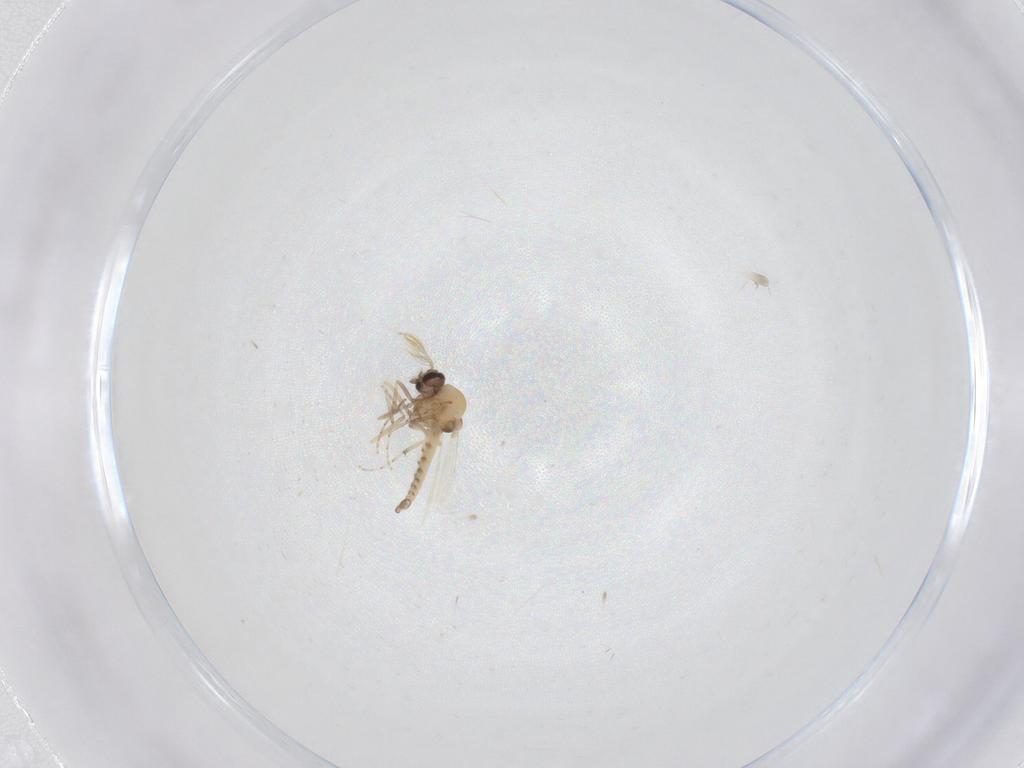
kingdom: Animalia
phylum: Arthropoda
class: Insecta
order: Diptera
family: Ceratopogonidae
